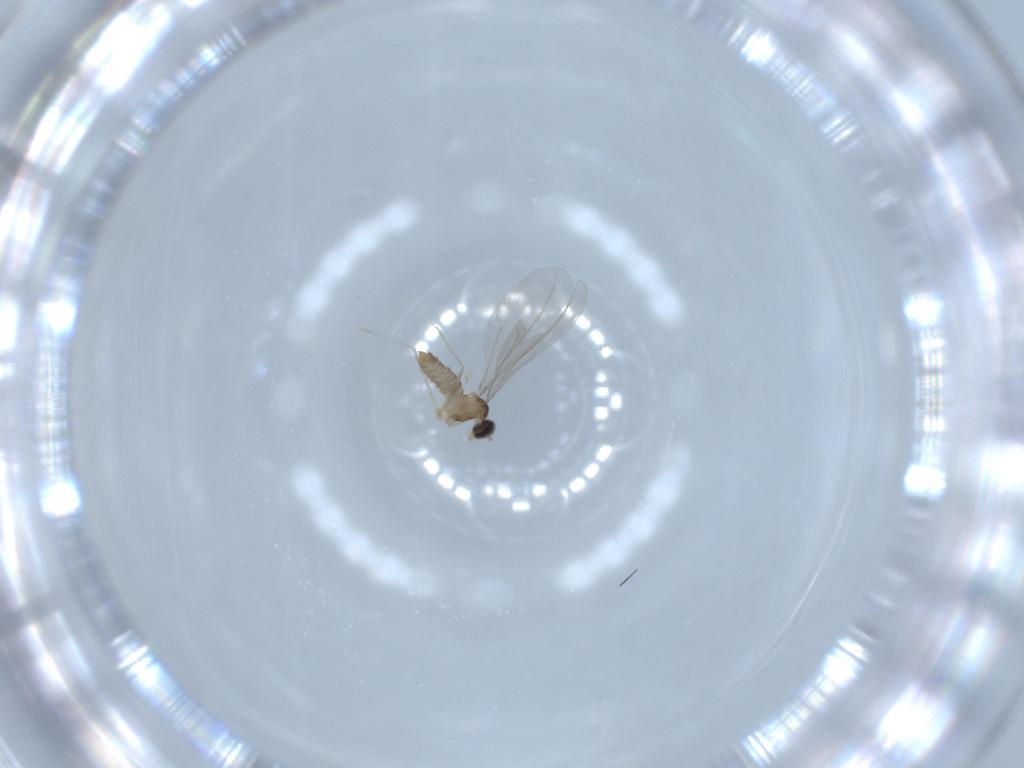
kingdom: Animalia
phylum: Arthropoda
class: Insecta
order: Diptera
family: Cecidomyiidae
